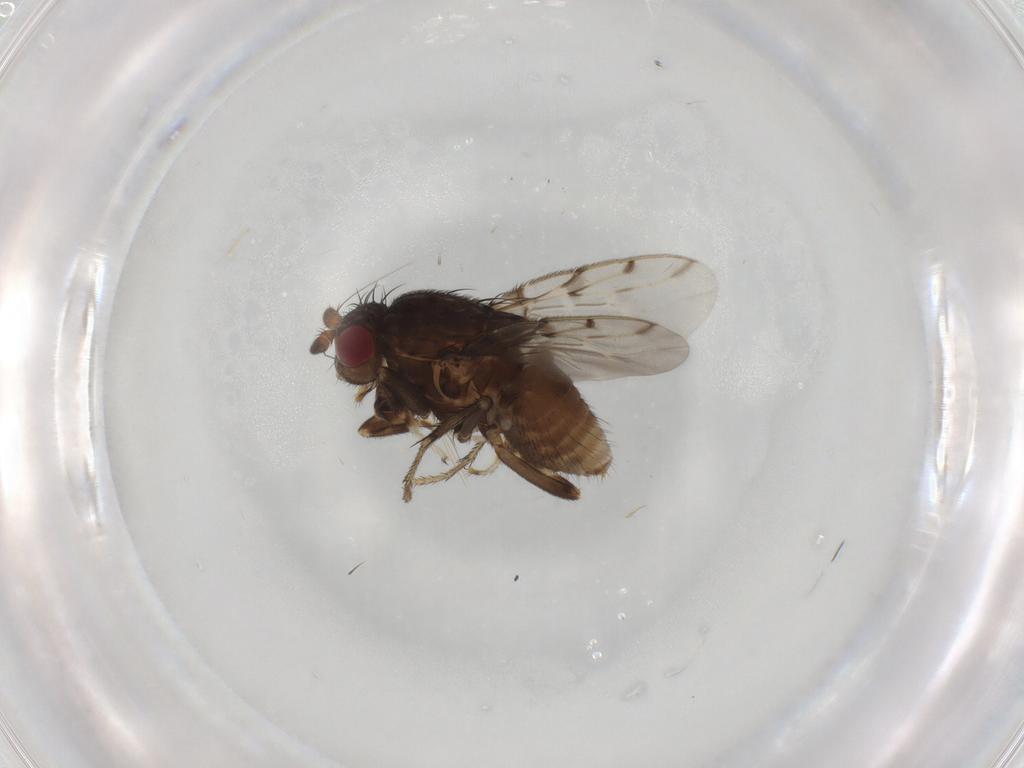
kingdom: Animalia
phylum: Arthropoda
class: Insecta
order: Diptera
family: Sphaeroceridae
